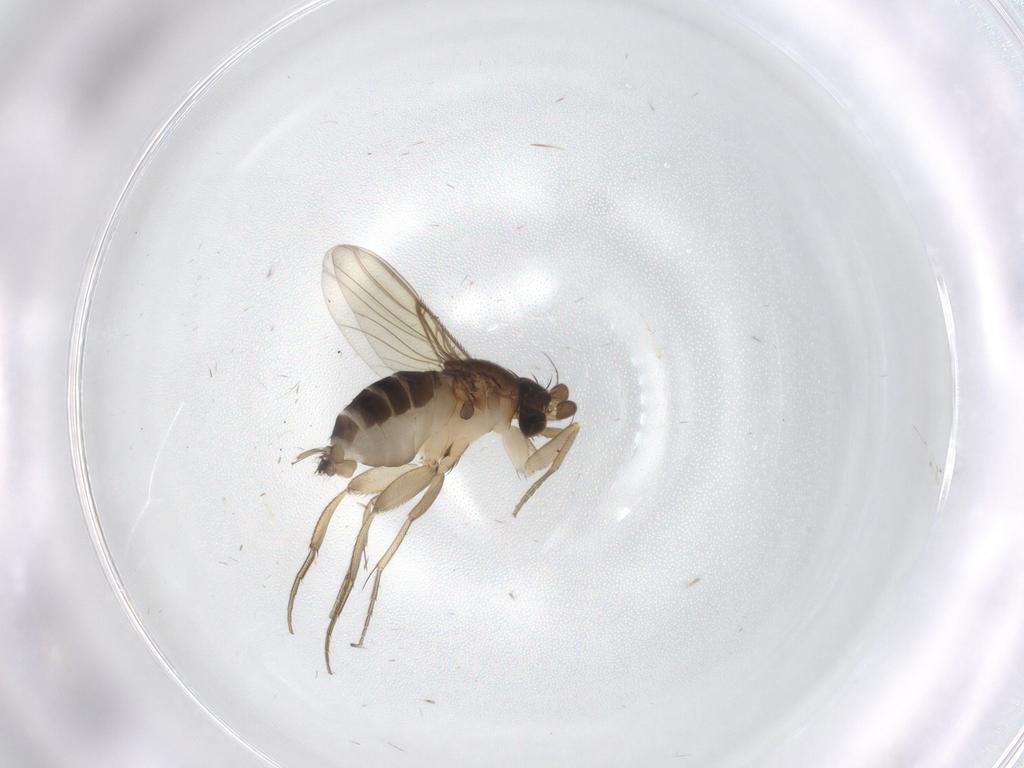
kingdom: Animalia
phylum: Arthropoda
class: Insecta
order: Diptera
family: Phoridae
